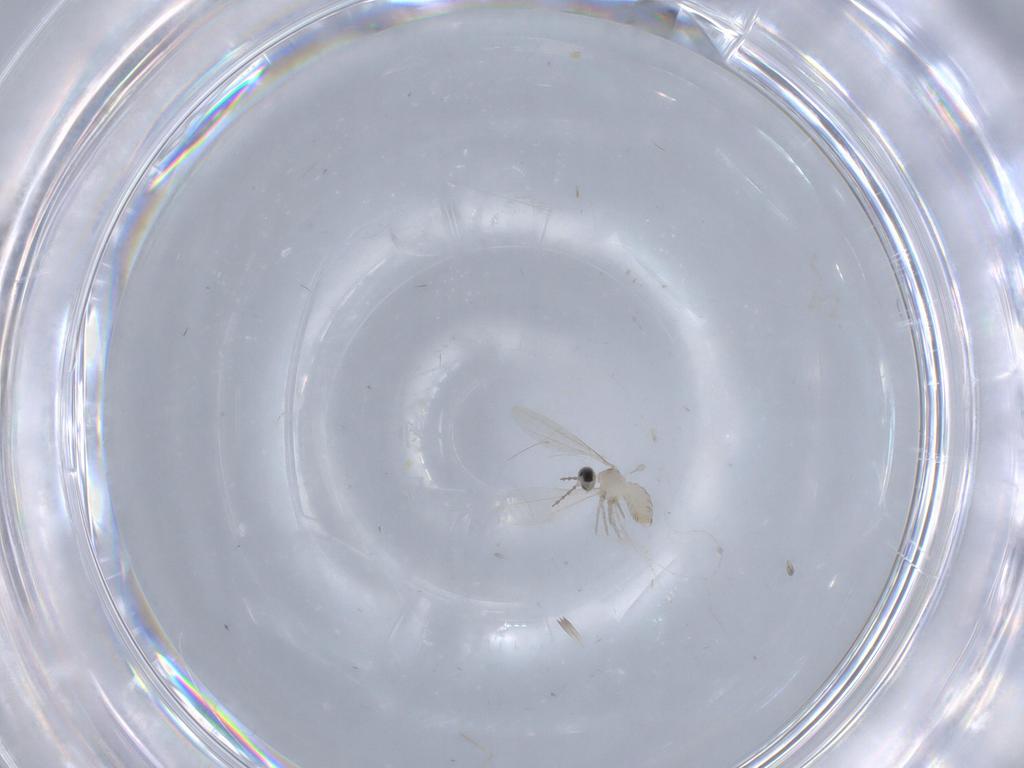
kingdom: Animalia
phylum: Arthropoda
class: Insecta
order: Diptera
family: Cecidomyiidae
